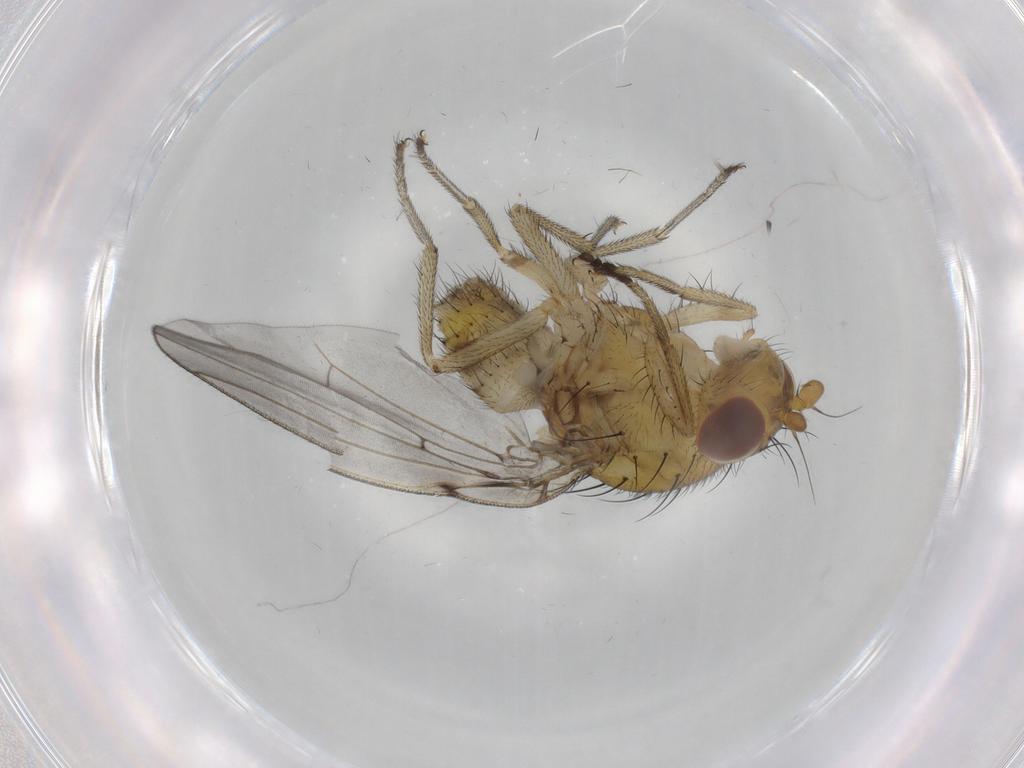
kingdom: Animalia
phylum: Arthropoda
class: Insecta
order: Diptera
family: Lauxaniidae
